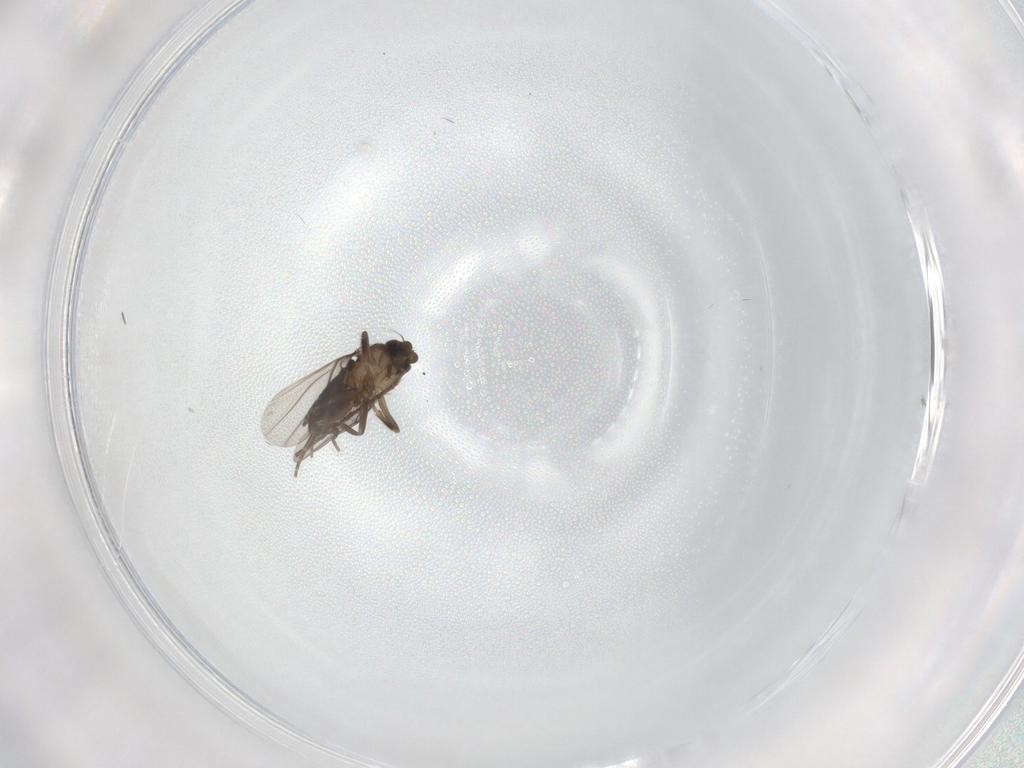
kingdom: Animalia
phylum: Arthropoda
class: Insecta
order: Diptera
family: Limoniidae
